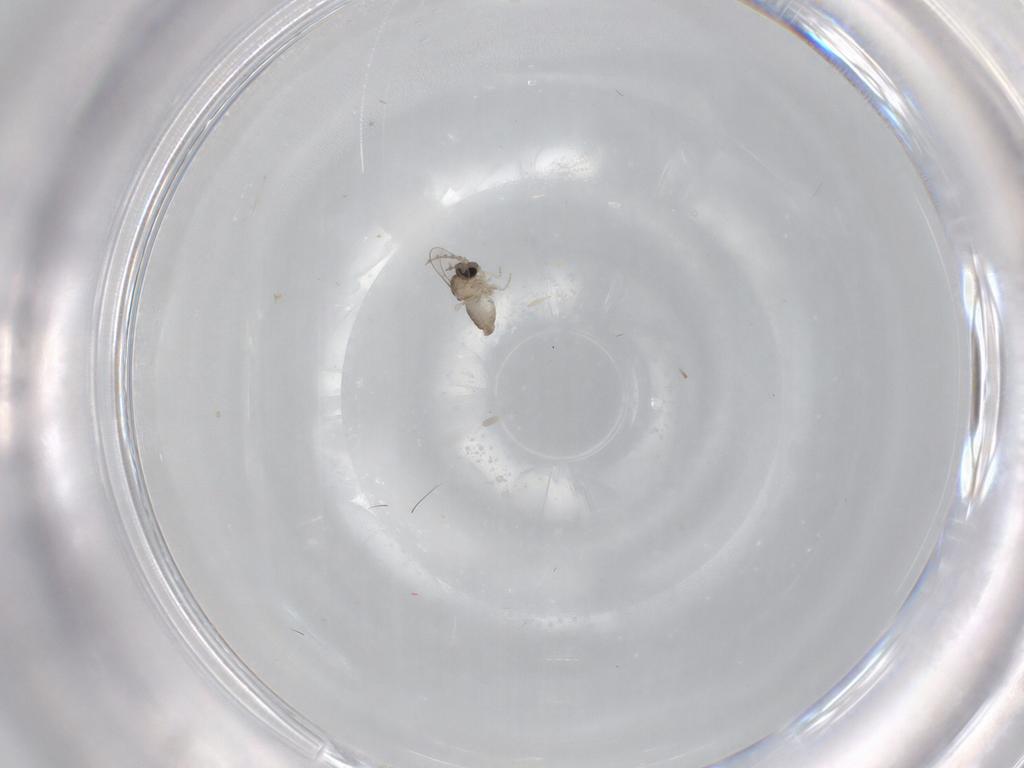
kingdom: Animalia
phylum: Arthropoda
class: Insecta
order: Diptera
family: Cecidomyiidae
